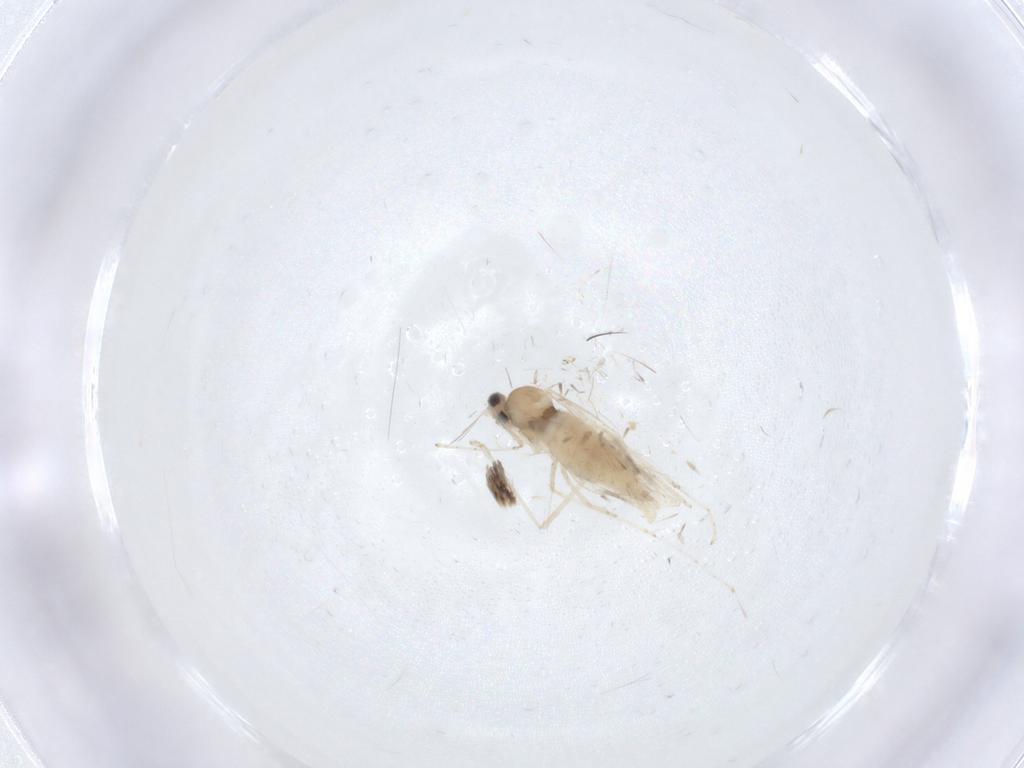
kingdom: Animalia
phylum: Arthropoda
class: Insecta
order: Diptera
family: Cecidomyiidae
